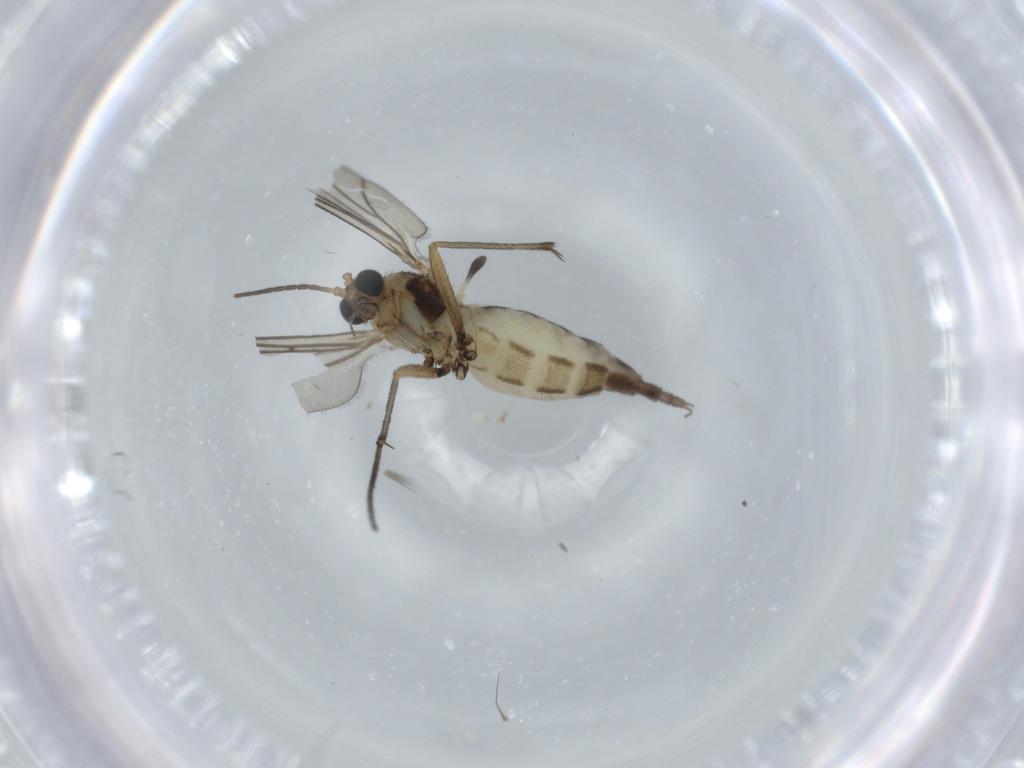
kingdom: Animalia
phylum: Arthropoda
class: Insecta
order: Diptera
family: Sciaridae
